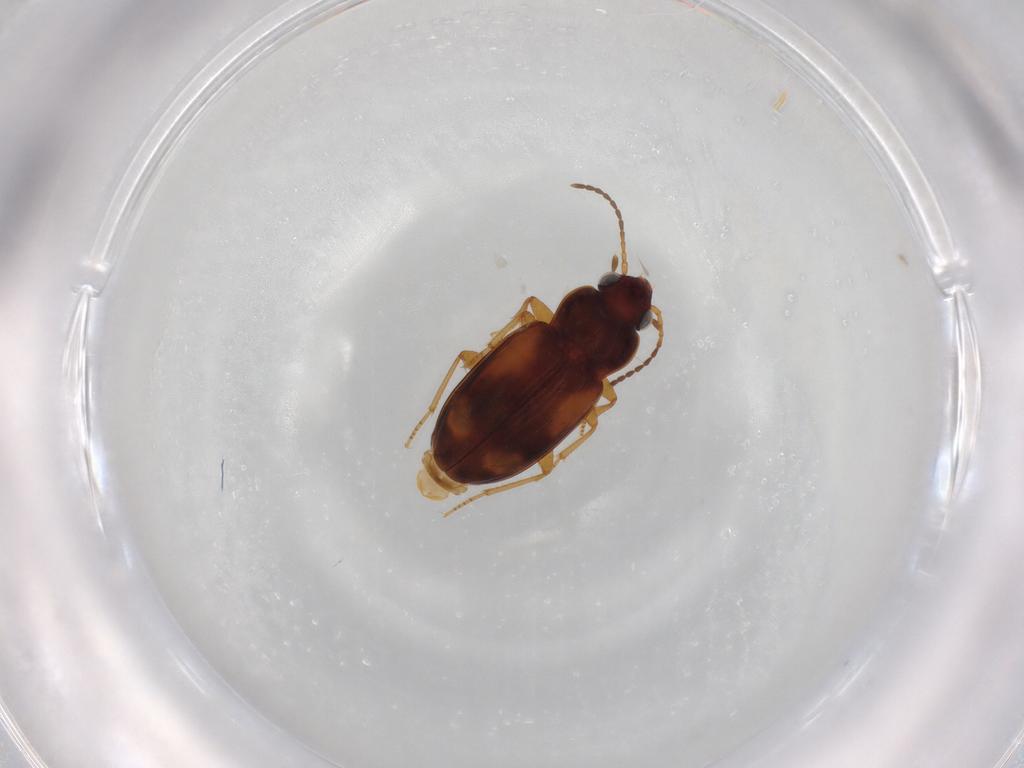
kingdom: Animalia
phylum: Arthropoda
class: Insecta
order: Coleoptera
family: Carabidae
